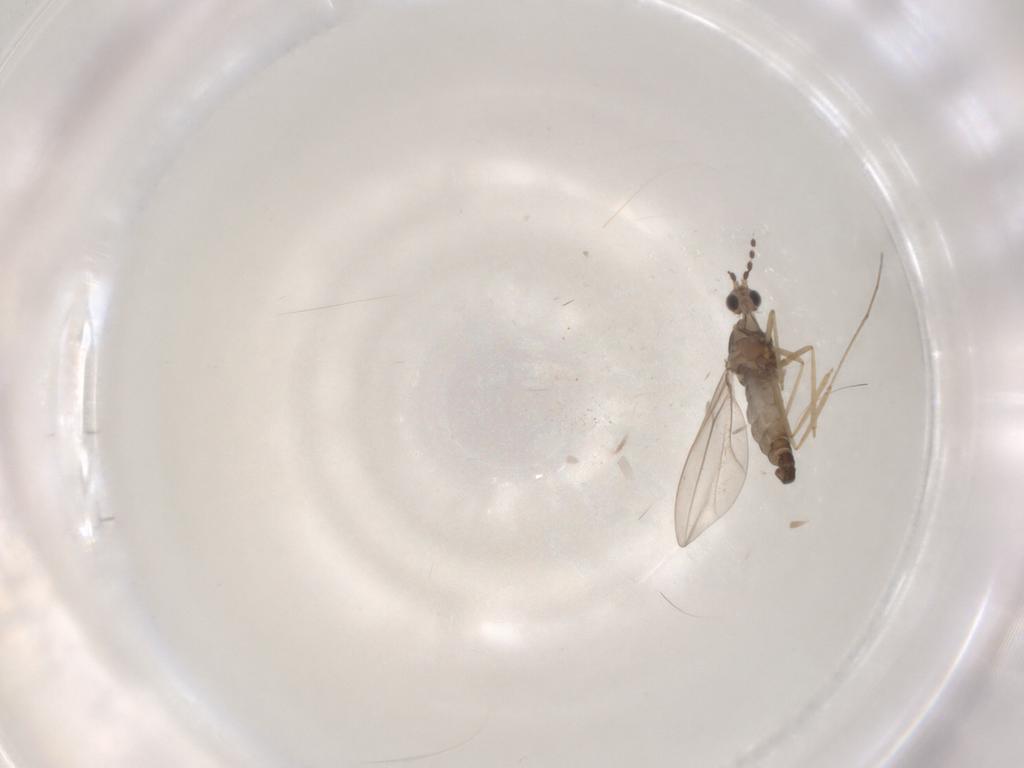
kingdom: Animalia
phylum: Arthropoda
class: Insecta
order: Diptera
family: Cecidomyiidae
